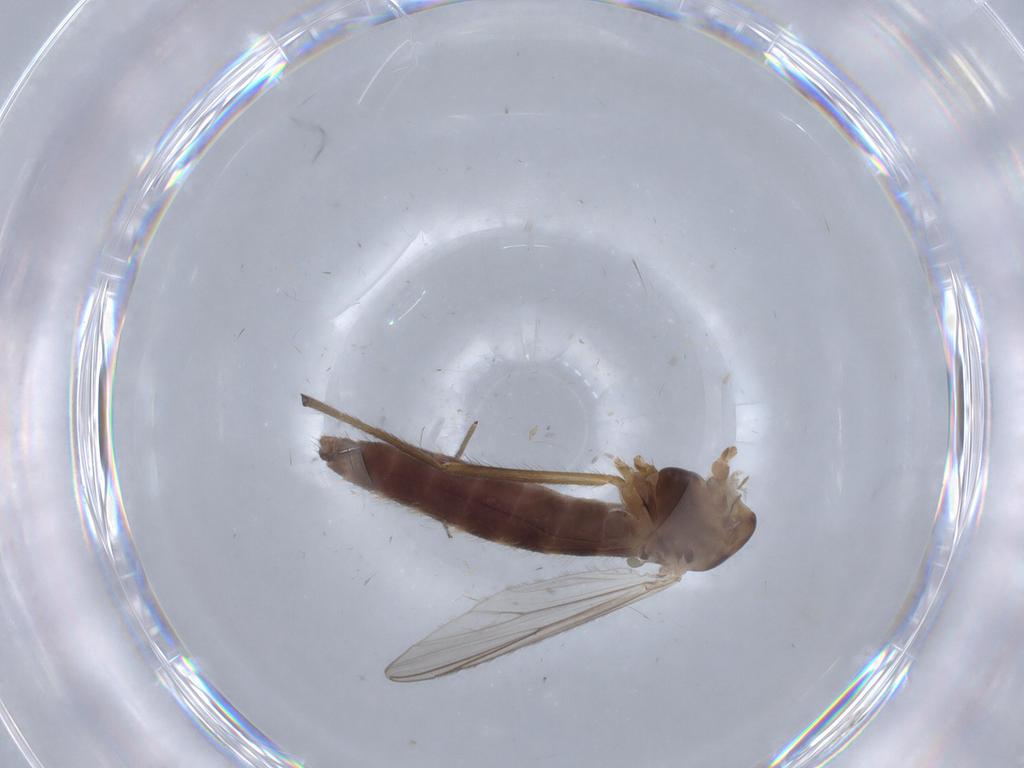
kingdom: Animalia
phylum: Arthropoda
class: Insecta
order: Diptera
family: Chironomidae
